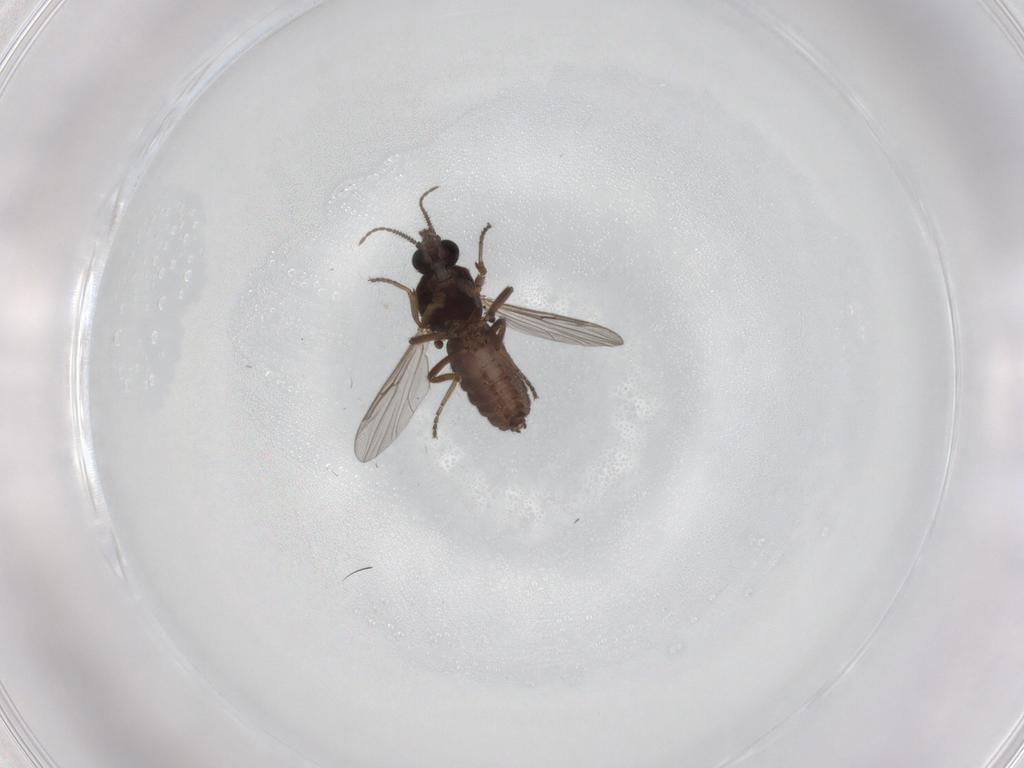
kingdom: Animalia
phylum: Arthropoda
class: Insecta
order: Diptera
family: Ceratopogonidae
